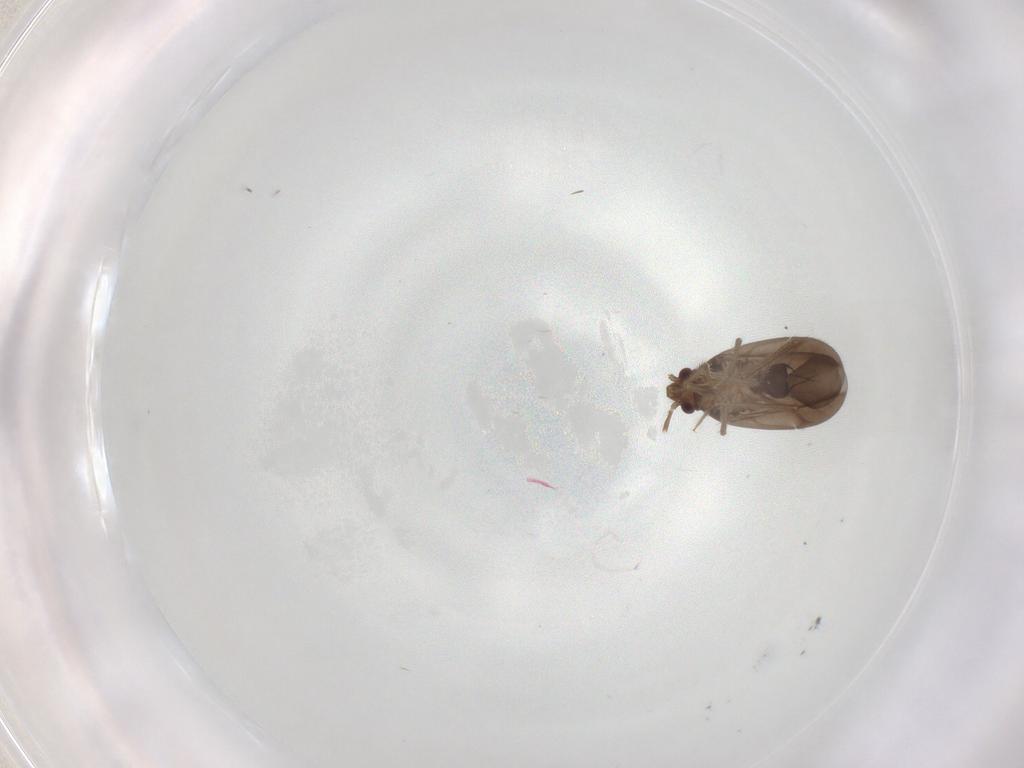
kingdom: Animalia
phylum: Arthropoda
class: Insecta
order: Hemiptera
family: Ceratocombidae
